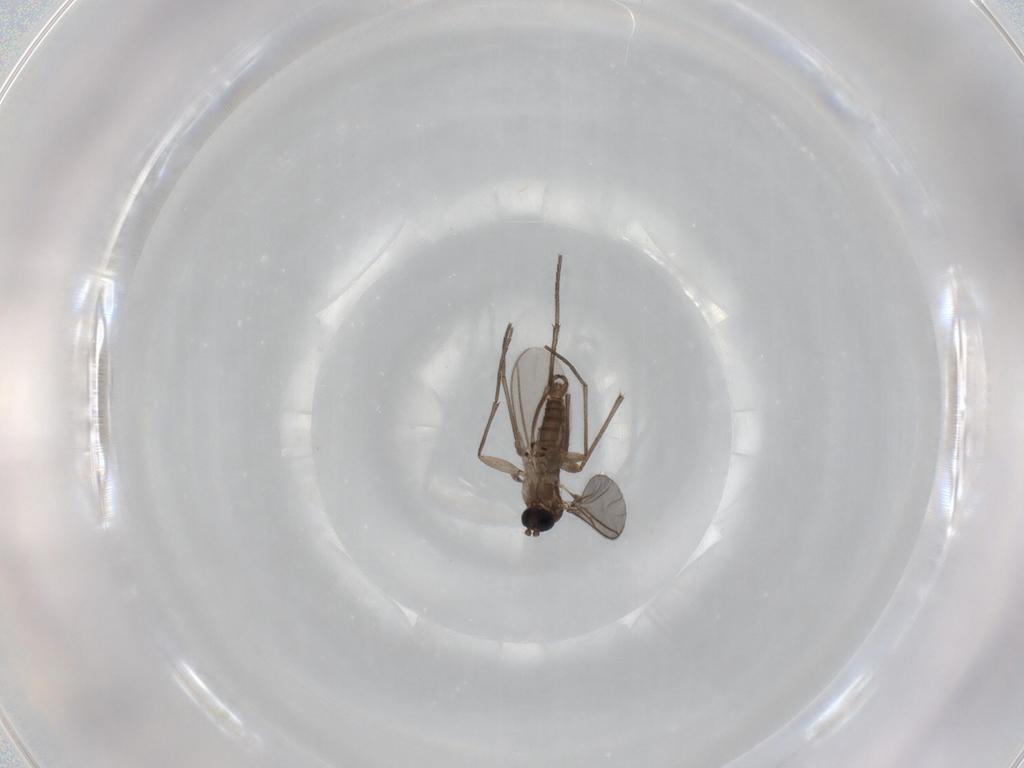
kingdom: Animalia
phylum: Arthropoda
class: Insecta
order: Diptera
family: Sciaridae
